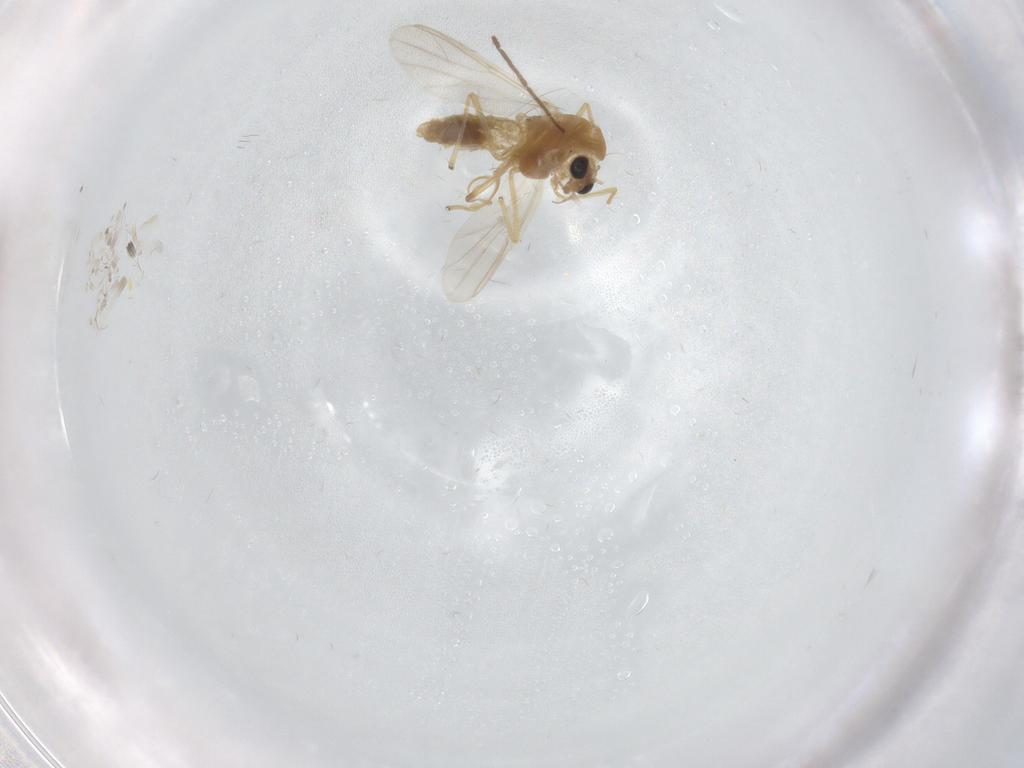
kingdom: Animalia
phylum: Arthropoda
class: Insecta
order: Diptera
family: Chironomidae
